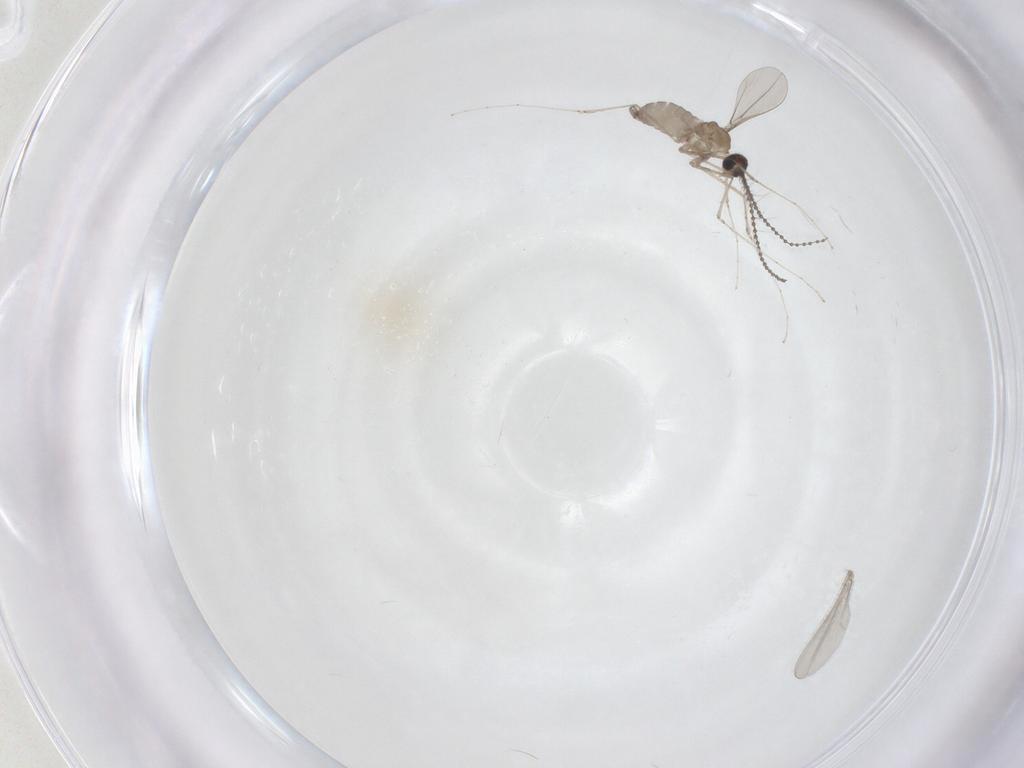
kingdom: Animalia
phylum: Arthropoda
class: Insecta
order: Diptera
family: Cecidomyiidae
